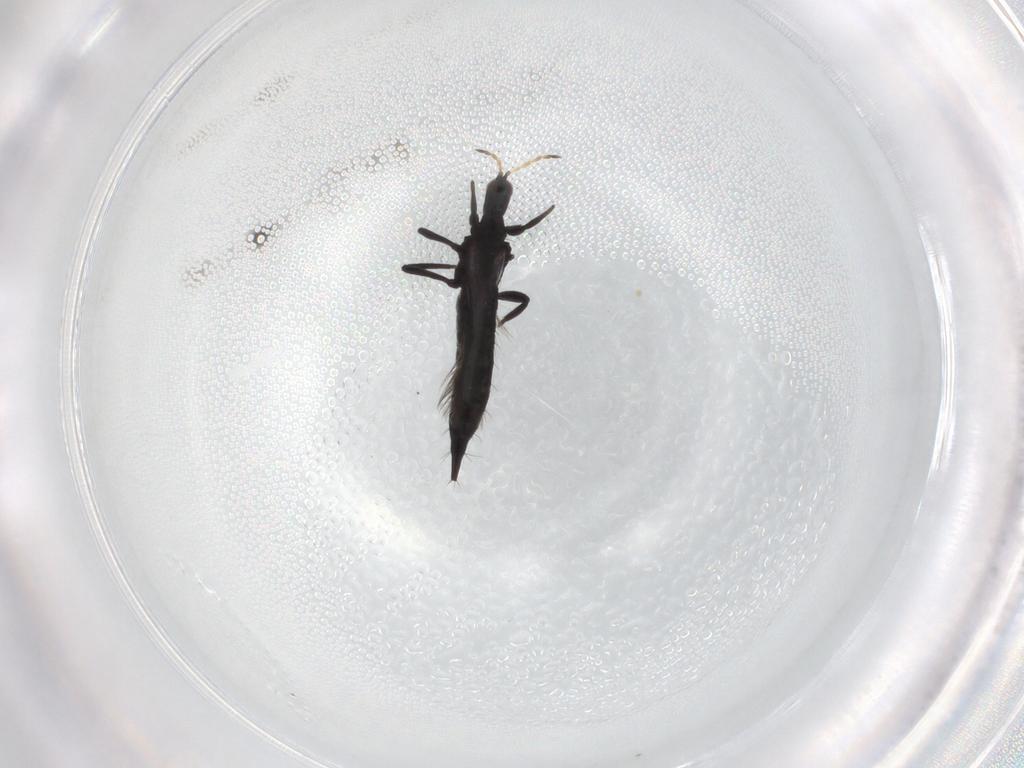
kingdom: Animalia
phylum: Arthropoda
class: Insecta
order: Thysanoptera
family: Phlaeothripidae
